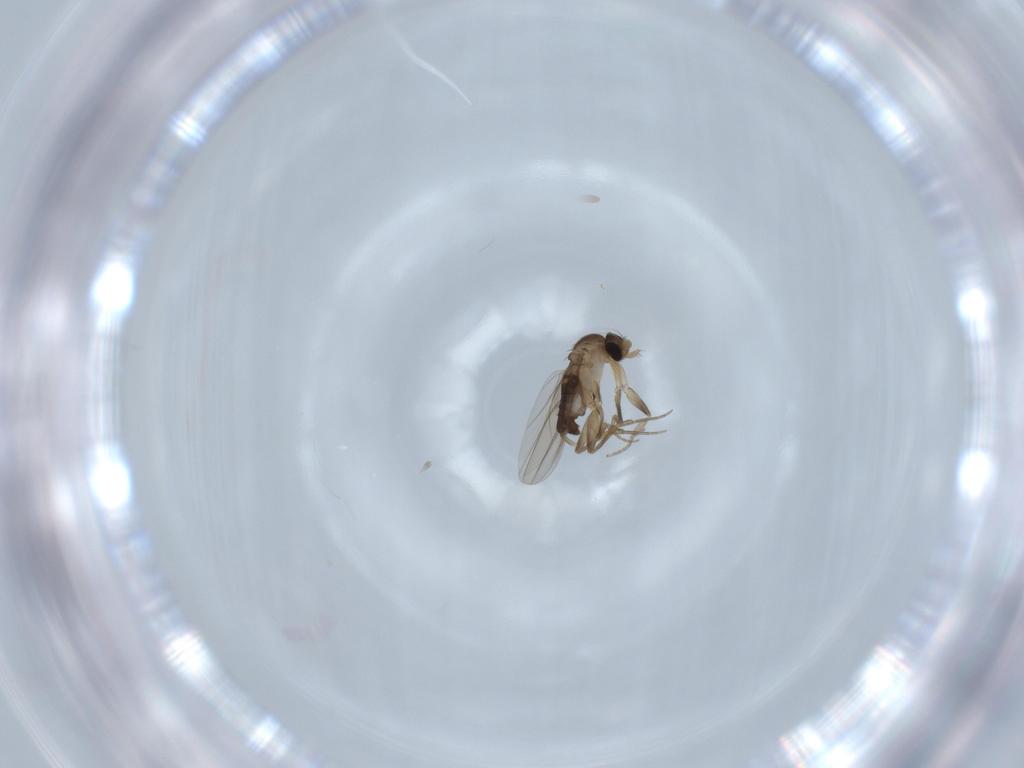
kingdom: Animalia
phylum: Arthropoda
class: Insecta
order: Diptera
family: Phoridae
